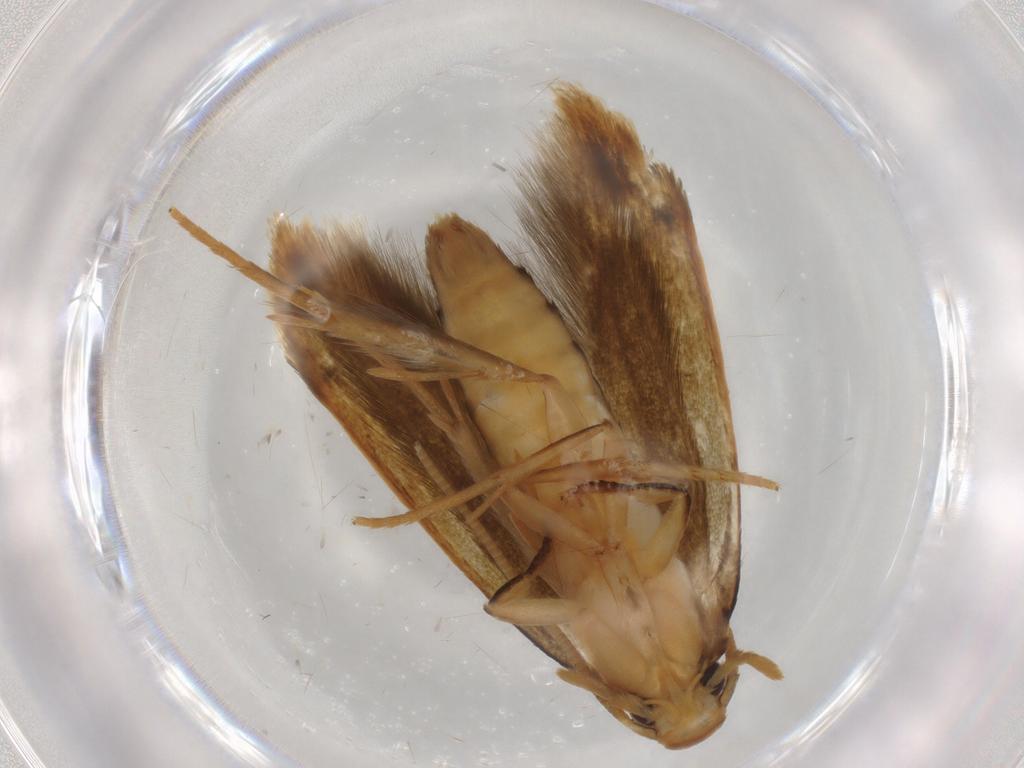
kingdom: Animalia
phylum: Arthropoda
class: Insecta
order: Lepidoptera
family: Tineidae
